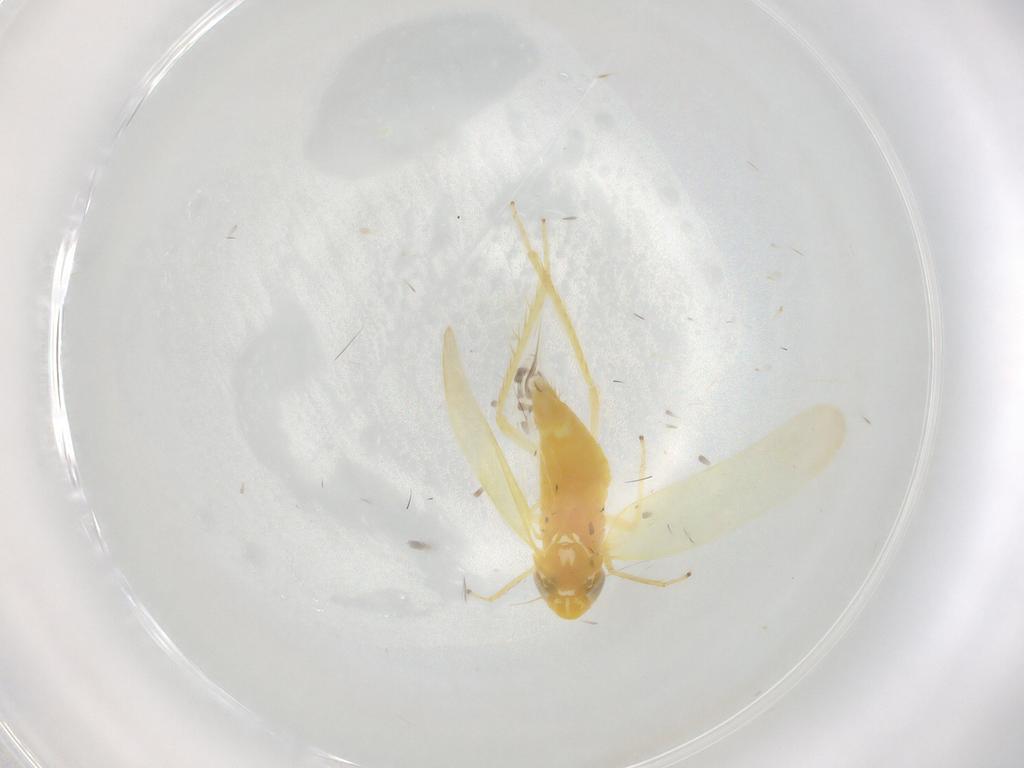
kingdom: Animalia
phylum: Arthropoda
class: Insecta
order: Hemiptera
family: Cicadellidae
